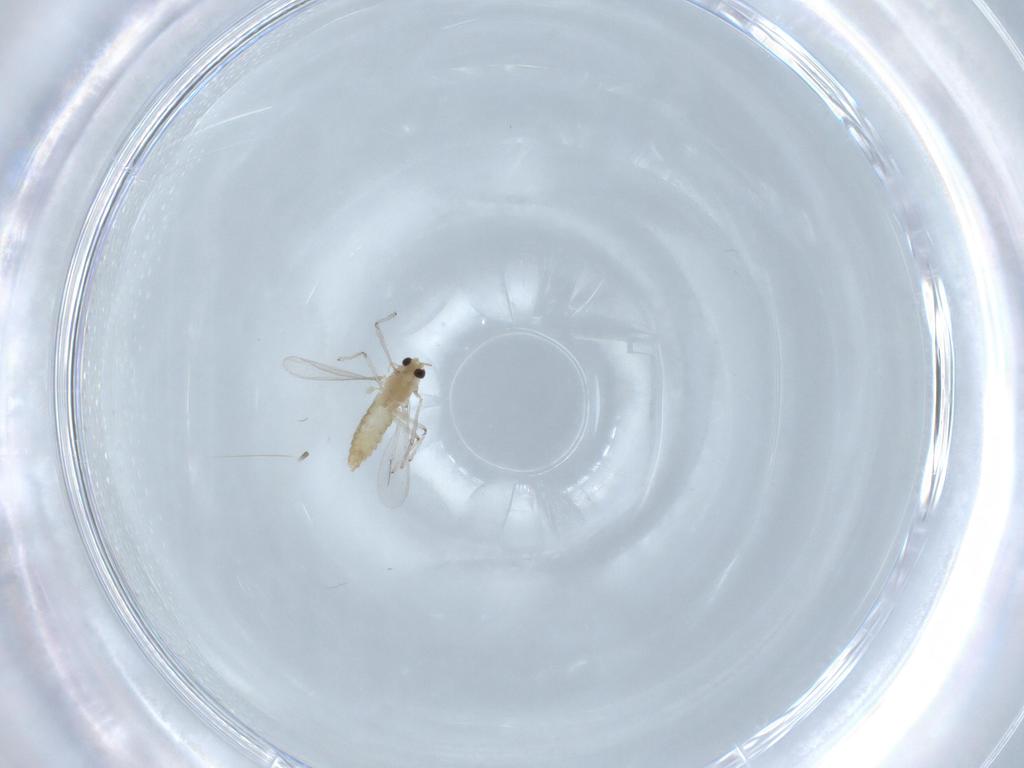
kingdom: Animalia
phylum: Arthropoda
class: Insecta
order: Diptera
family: Chironomidae
